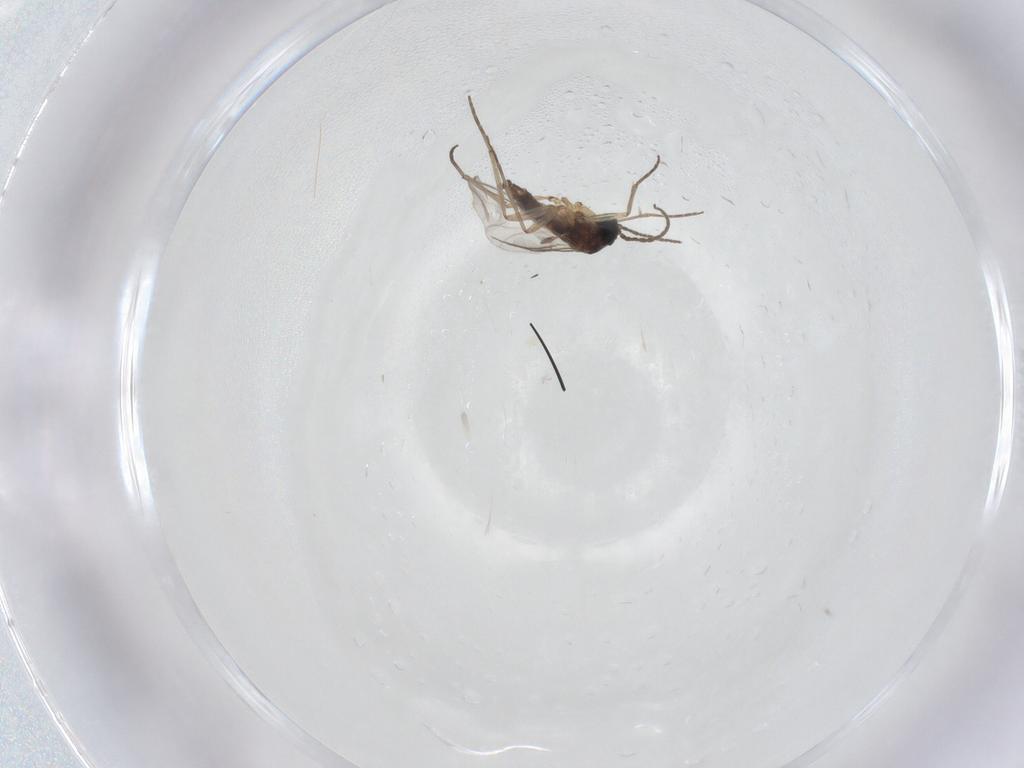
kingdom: Animalia
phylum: Arthropoda
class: Insecta
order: Diptera
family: Sciaridae
